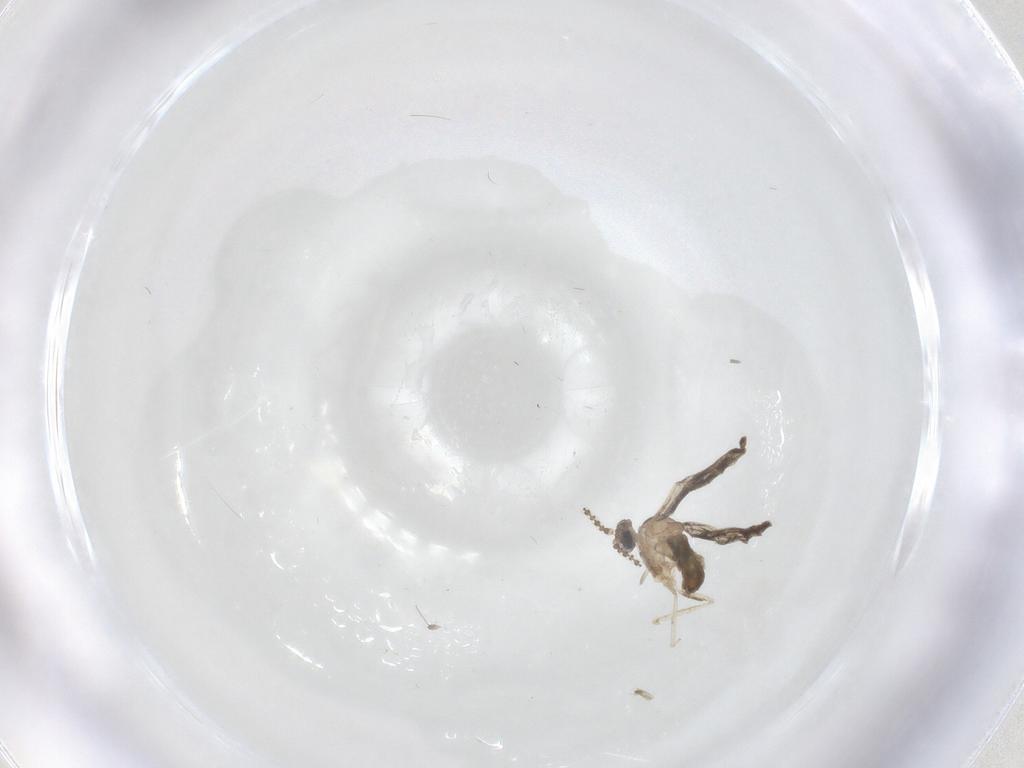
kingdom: Animalia
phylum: Arthropoda
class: Insecta
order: Diptera
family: Cecidomyiidae
